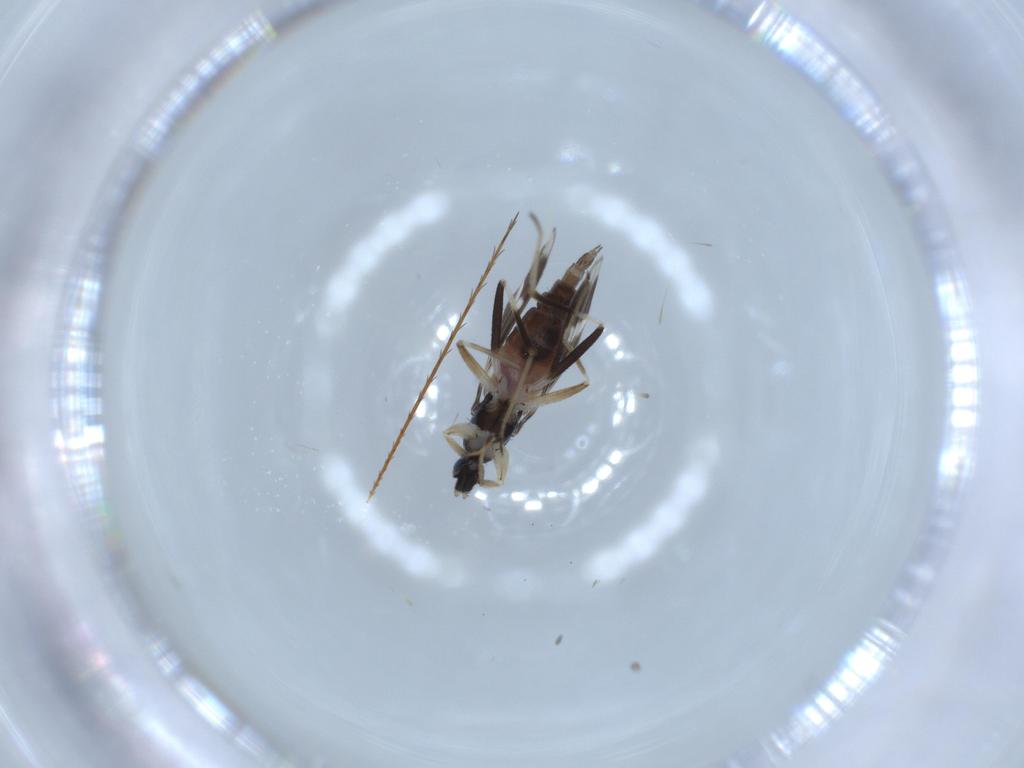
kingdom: Animalia
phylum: Arthropoda
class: Insecta
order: Diptera
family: Hybotidae
